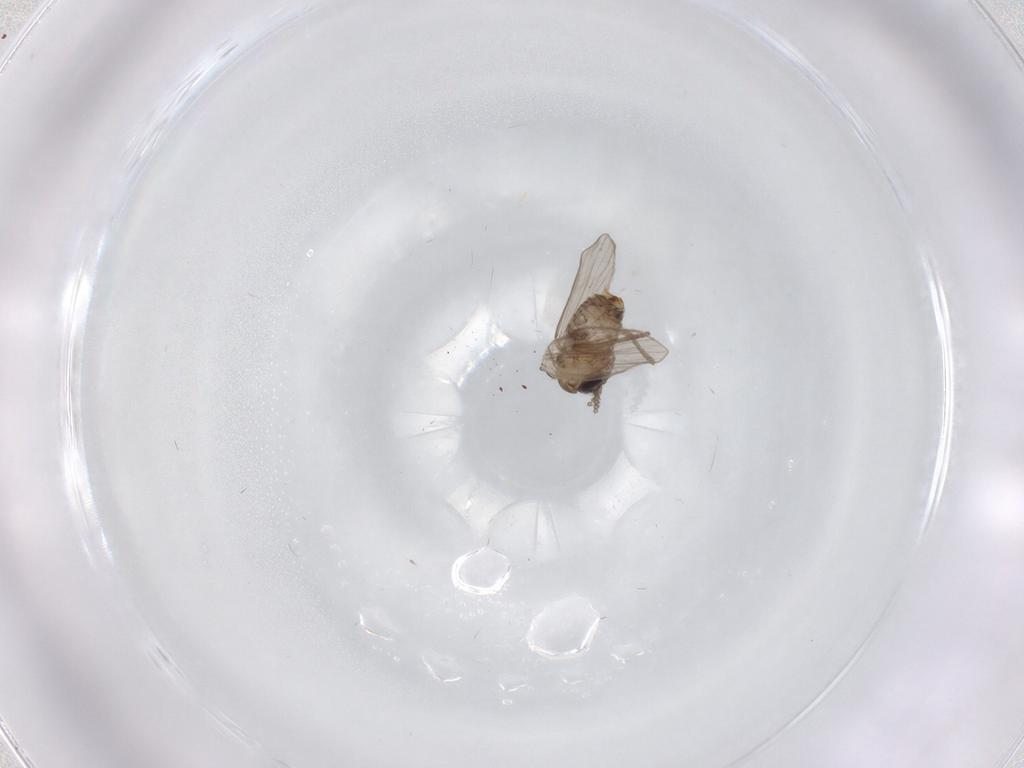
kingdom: Animalia
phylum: Arthropoda
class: Insecta
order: Diptera
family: Psychodidae
